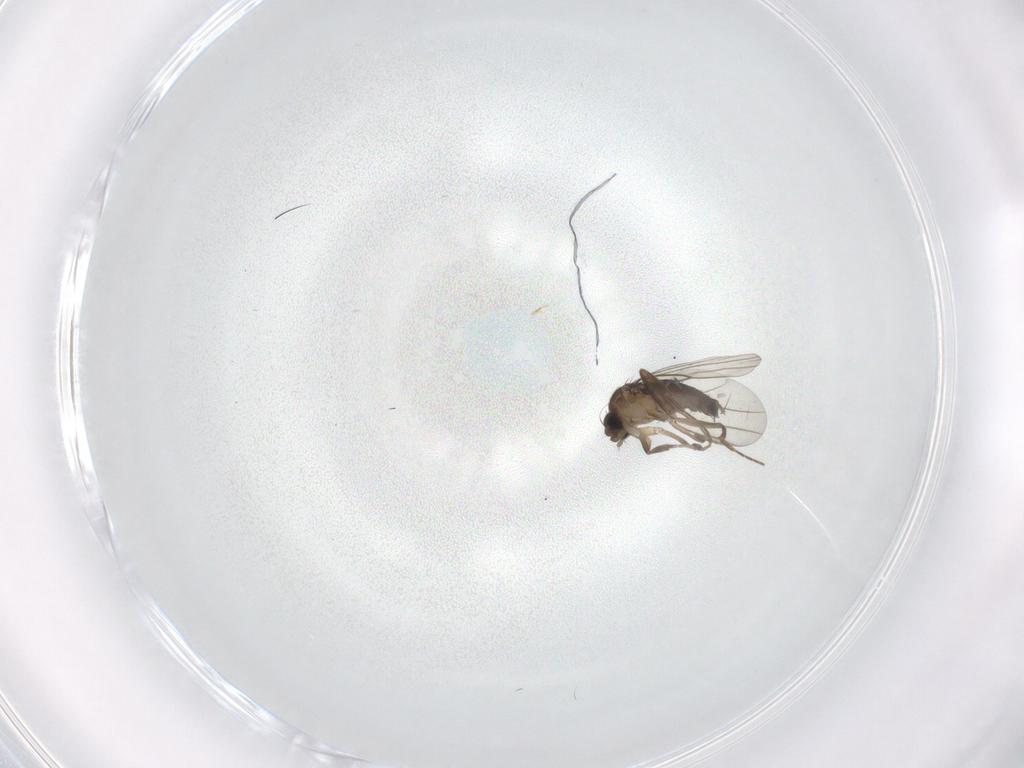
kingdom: Animalia
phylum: Arthropoda
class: Insecta
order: Diptera
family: Phoridae
